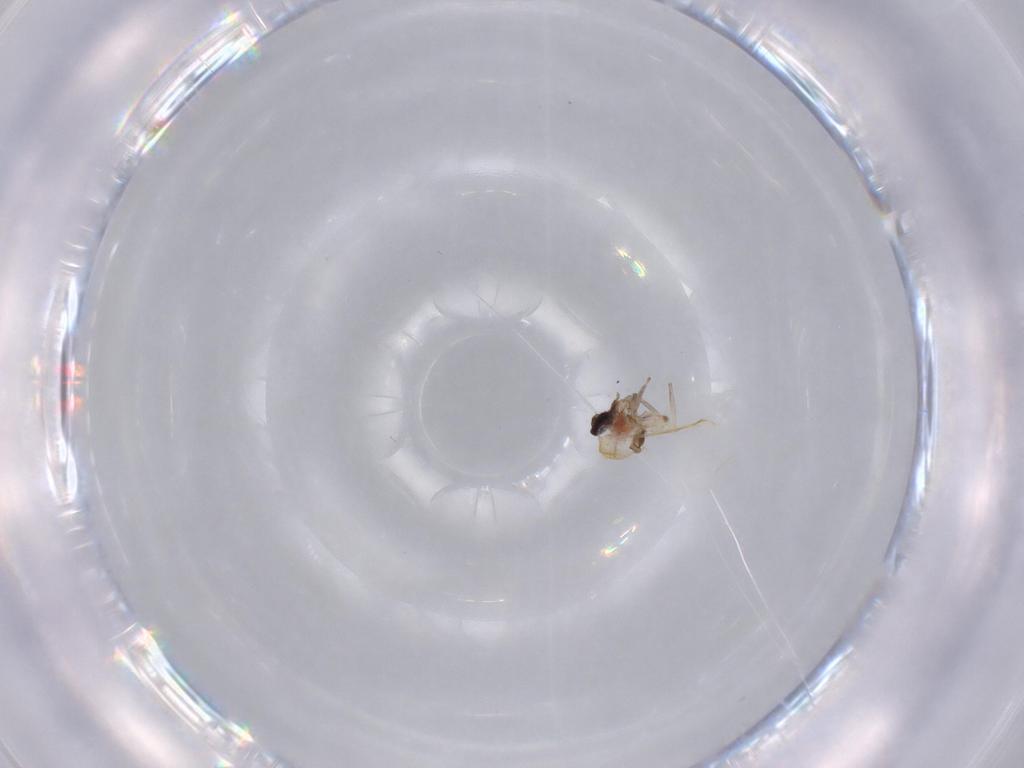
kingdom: Animalia
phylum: Arthropoda
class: Insecta
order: Diptera
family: Cecidomyiidae
